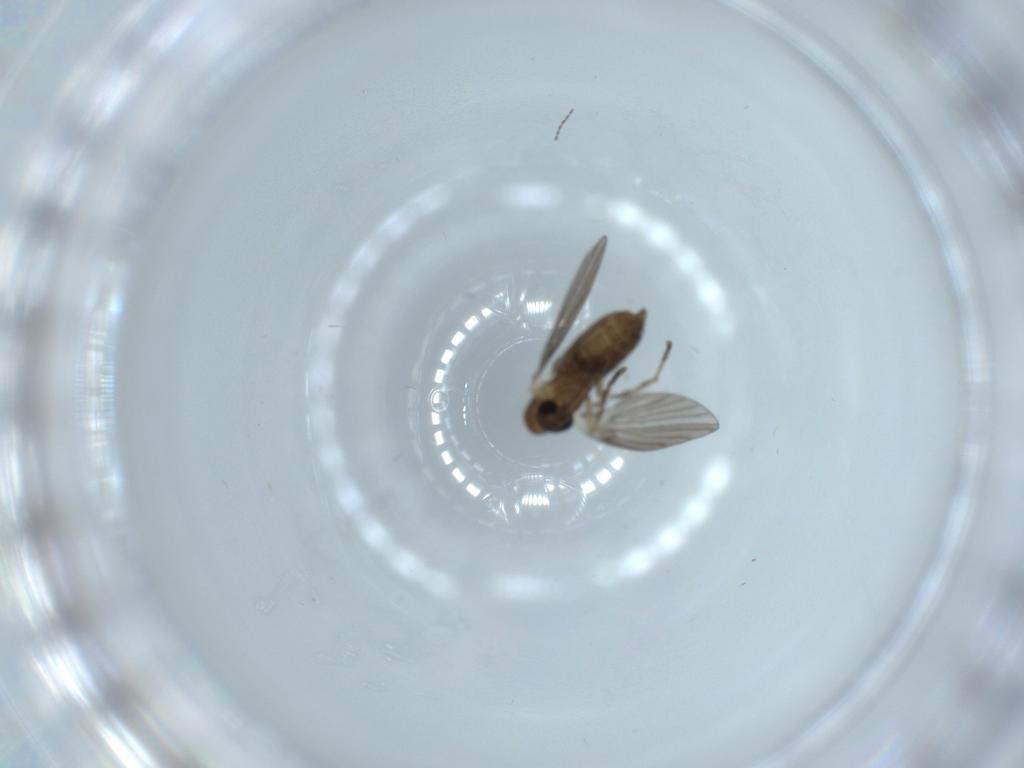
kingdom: Animalia
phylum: Arthropoda
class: Insecta
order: Diptera
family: Psychodidae
